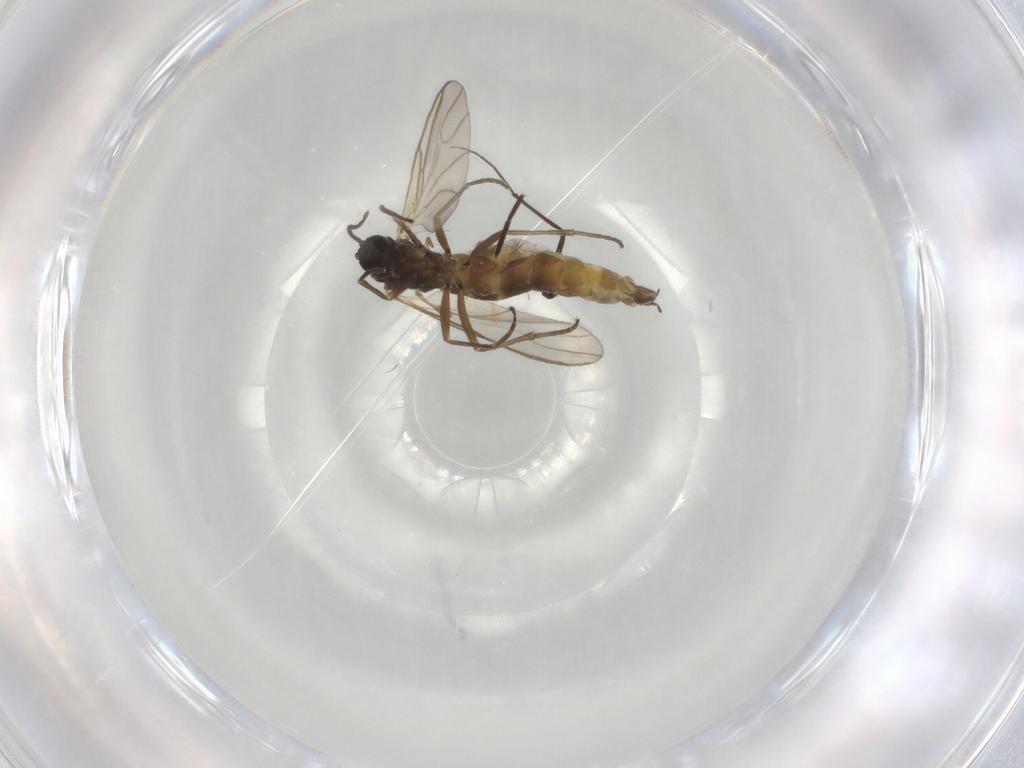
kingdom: Animalia
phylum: Arthropoda
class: Insecta
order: Diptera
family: Sciaridae
